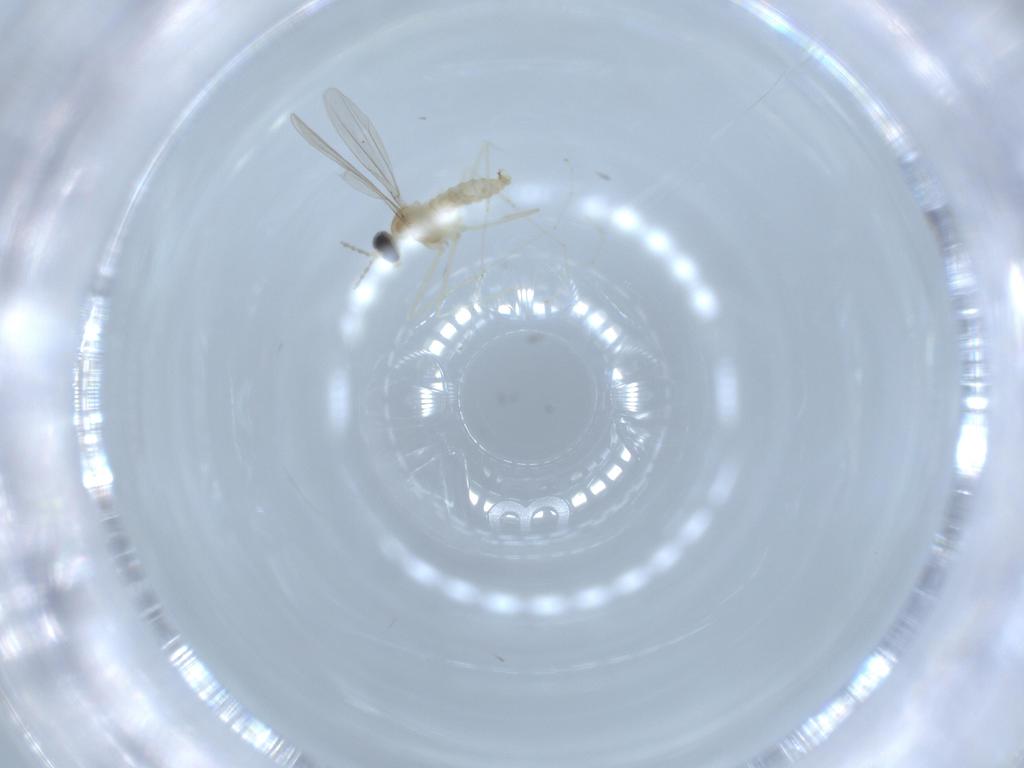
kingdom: Animalia
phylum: Arthropoda
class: Insecta
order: Diptera
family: Cecidomyiidae
